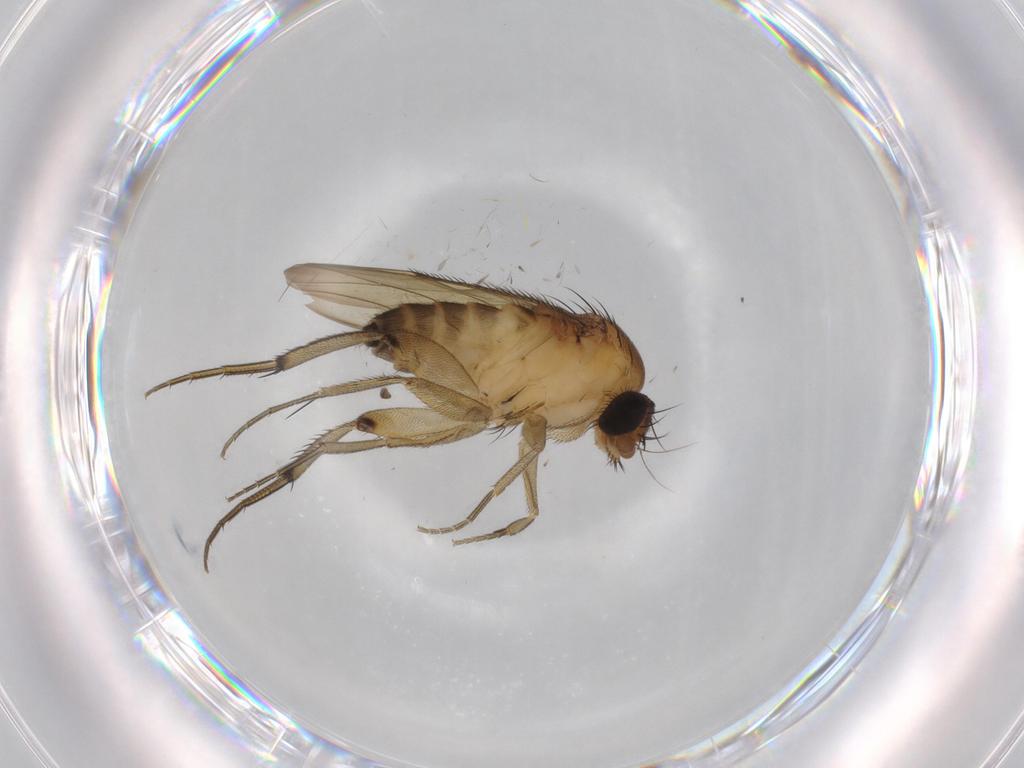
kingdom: Animalia
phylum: Arthropoda
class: Insecta
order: Diptera
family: Phoridae
